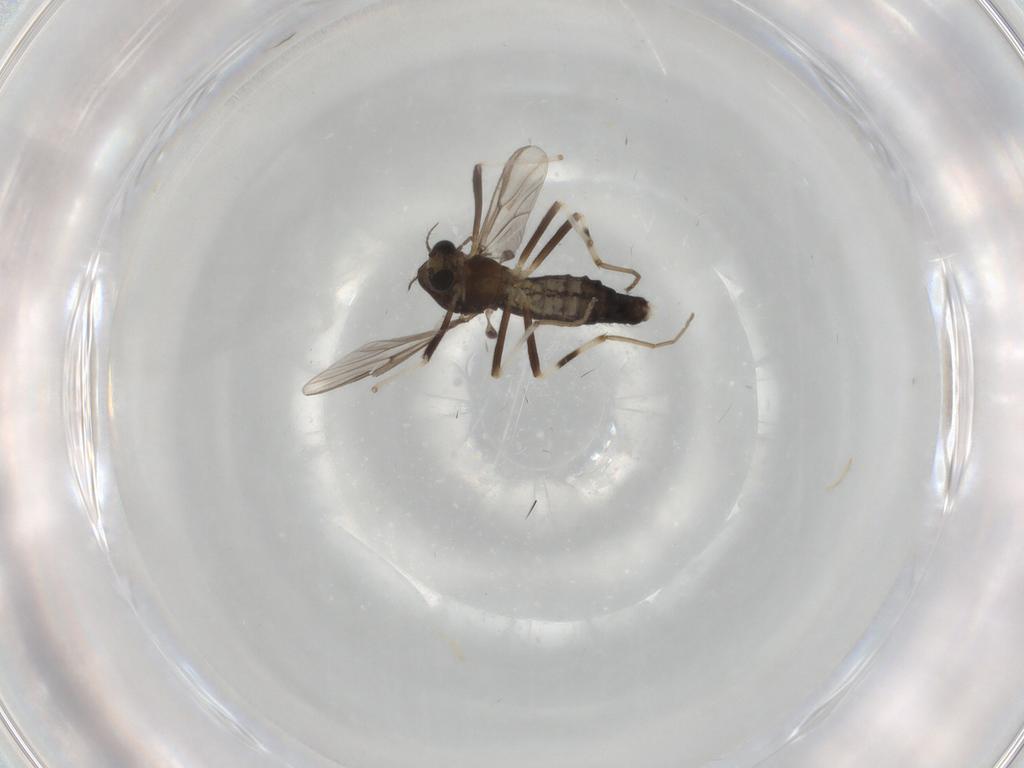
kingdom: Animalia
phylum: Arthropoda
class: Insecta
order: Diptera
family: Chironomidae
